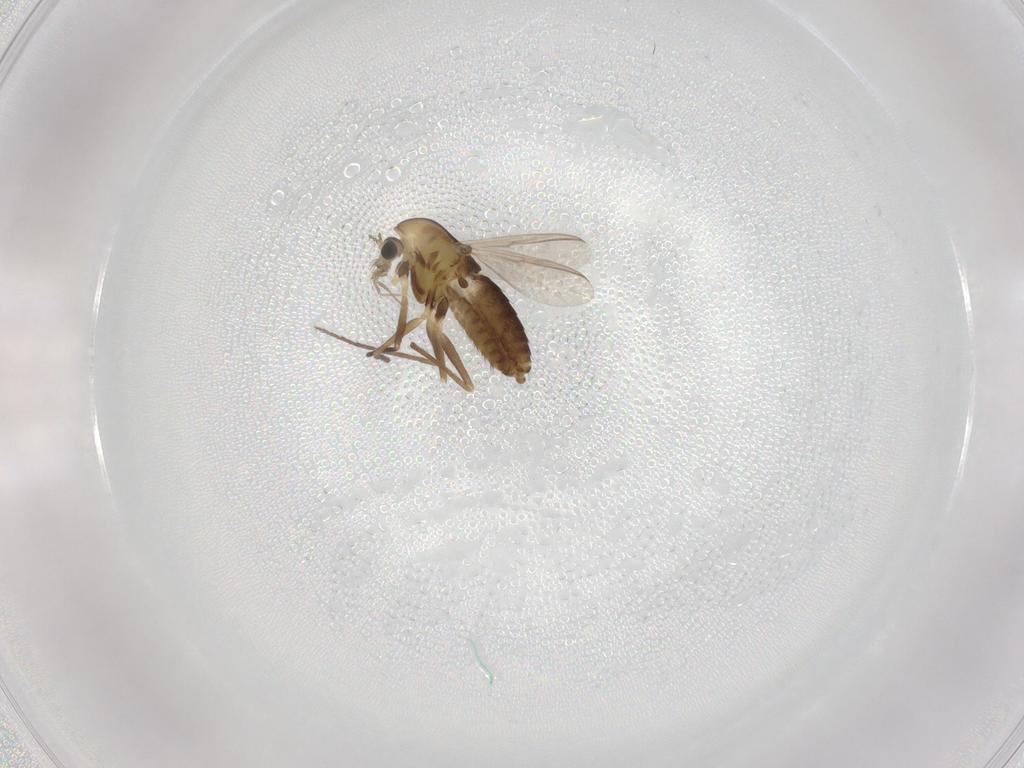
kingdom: Animalia
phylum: Arthropoda
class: Insecta
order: Diptera
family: Chironomidae
